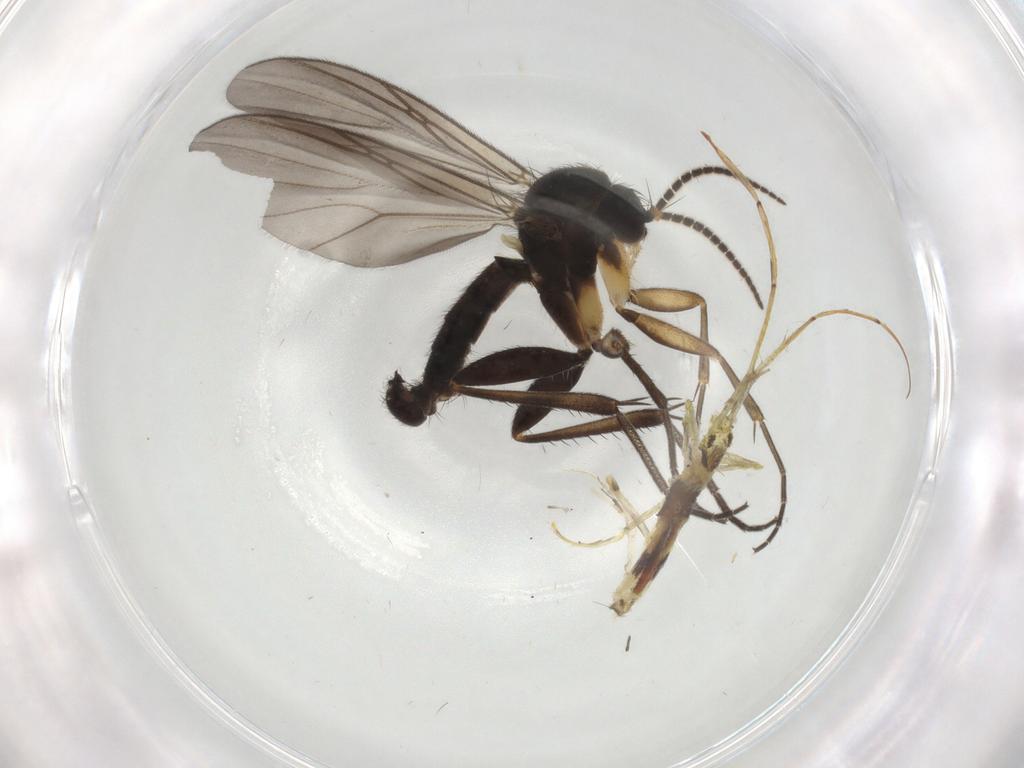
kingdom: Animalia
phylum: Arthropoda
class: Insecta
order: Diptera
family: Mycetophilidae
